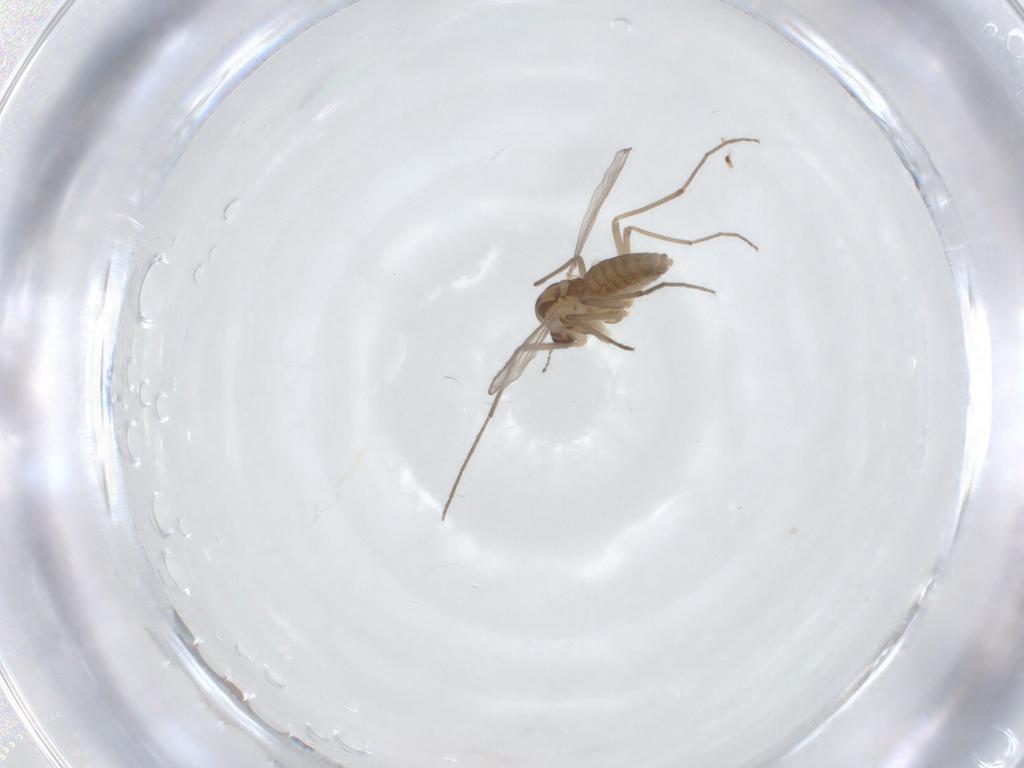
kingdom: Animalia
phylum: Arthropoda
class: Insecta
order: Diptera
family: Chironomidae
